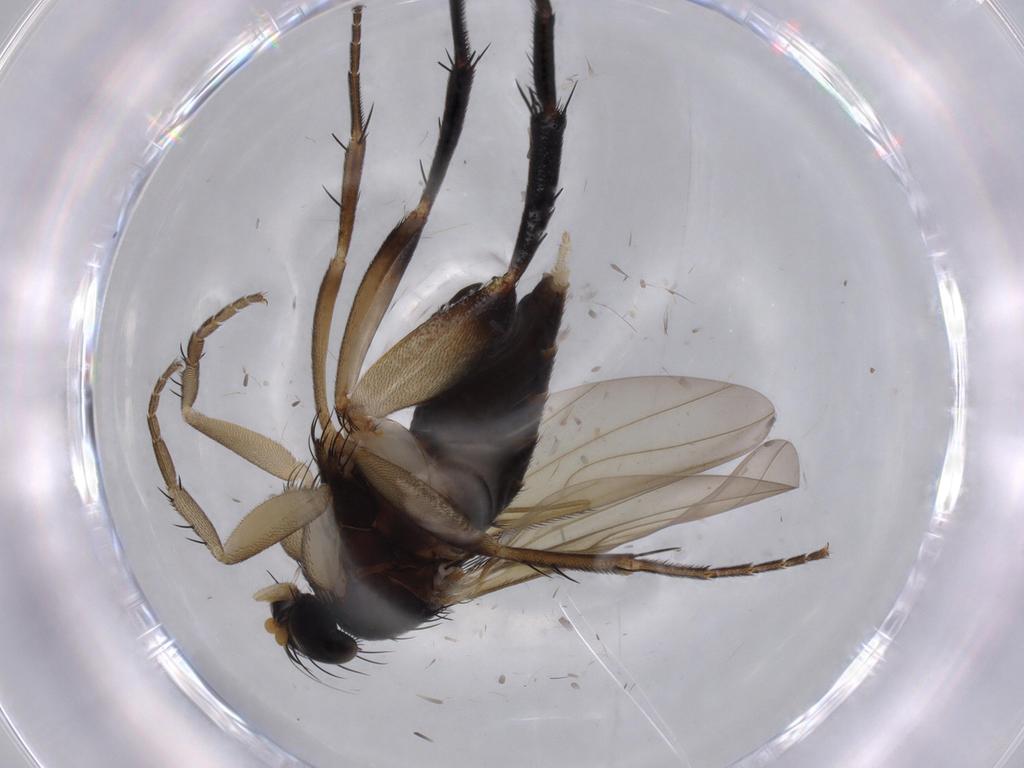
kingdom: Animalia
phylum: Arthropoda
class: Insecta
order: Diptera
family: Phoridae
